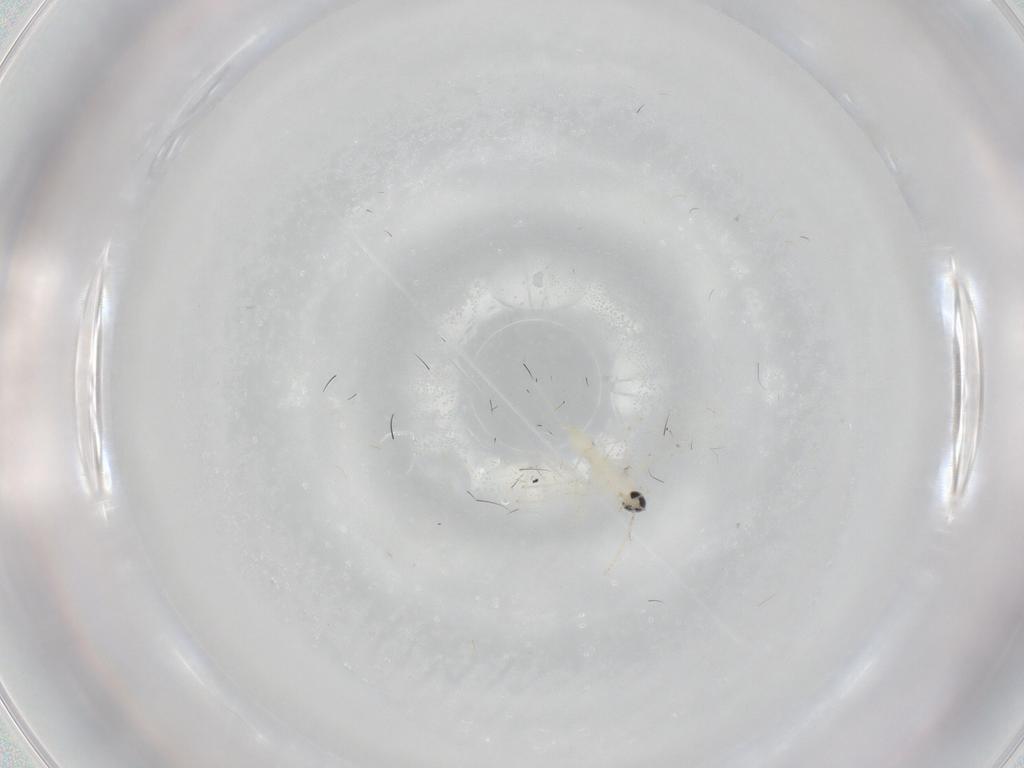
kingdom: Animalia
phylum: Arthropoda
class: Insecta
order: Diptera
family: Cecidomyiidae
